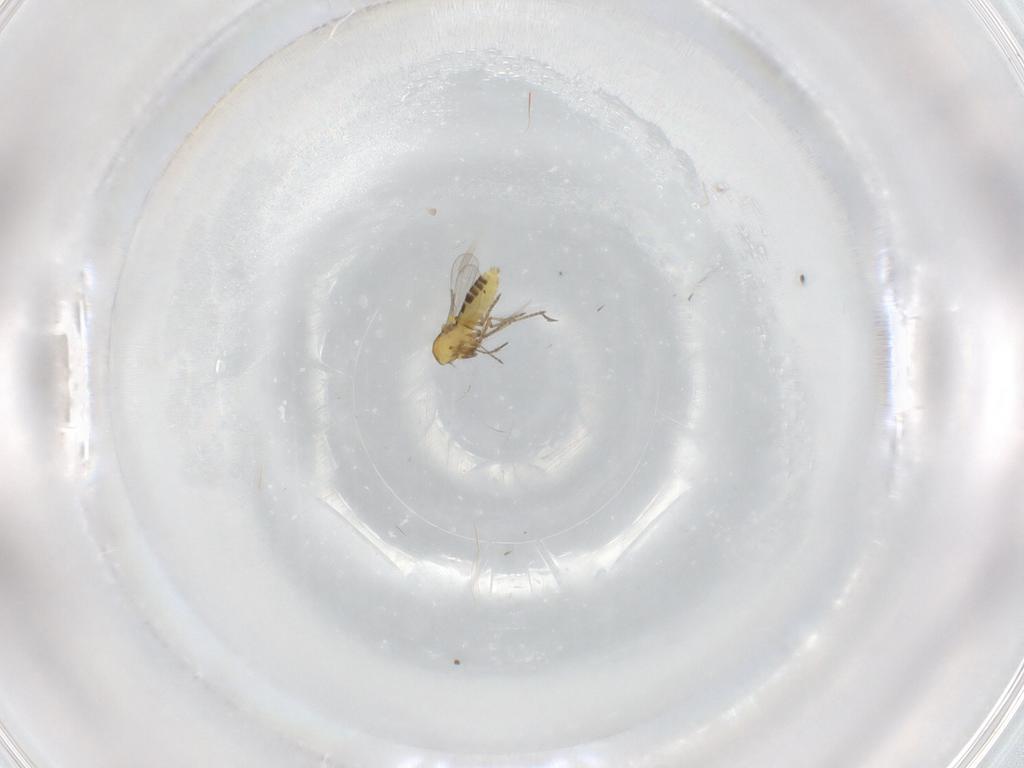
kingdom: Animalia
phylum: Arthropoda
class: Insecta
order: Diptera
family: Ceratopogonidae
